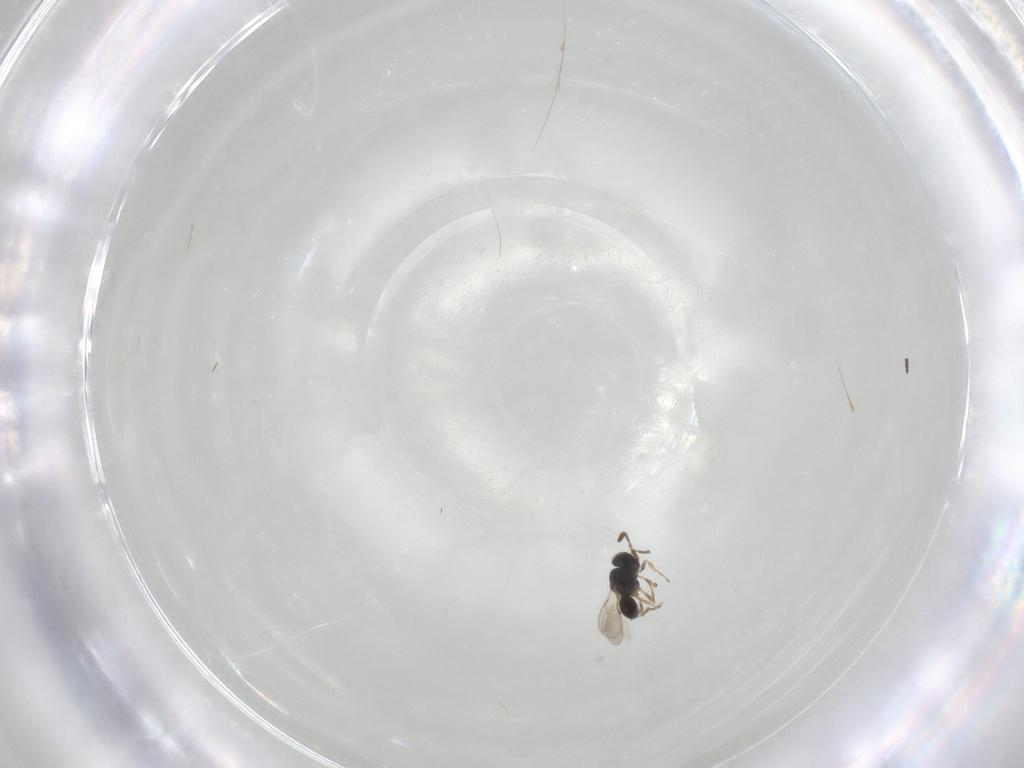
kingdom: Animalia
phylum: Arthropoda
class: Insecta
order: Hymenoptera
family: Scelionidae
